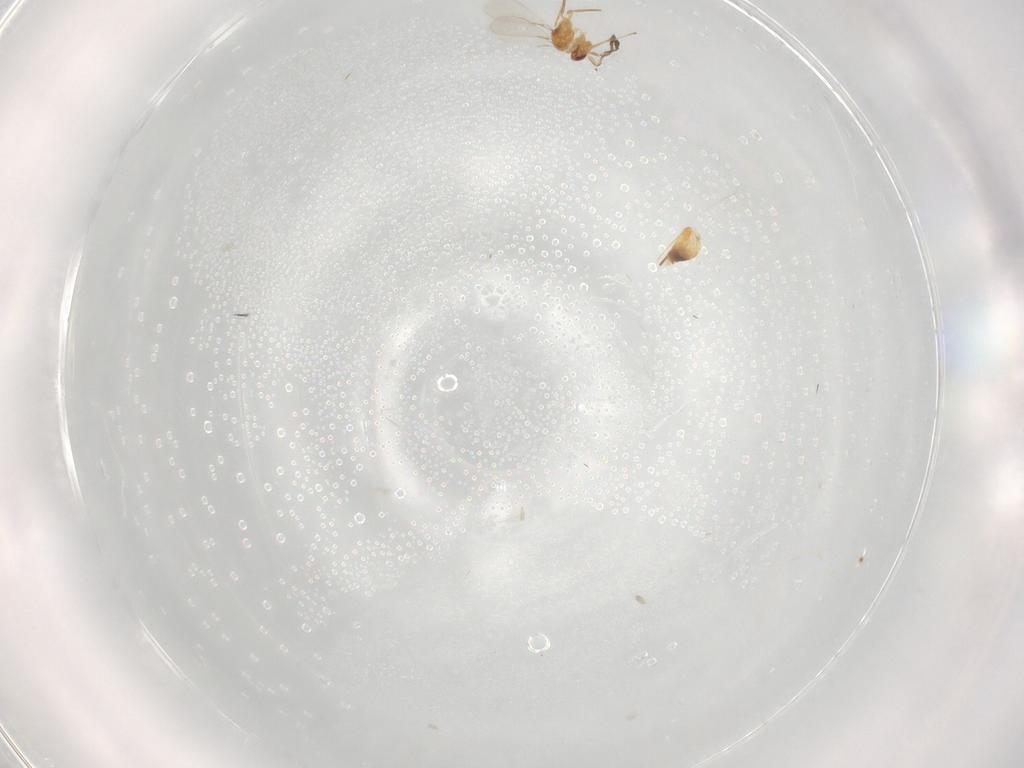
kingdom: Animalia
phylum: Arthropoda
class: Insecta
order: Hymenoptera
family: Mymaridae
